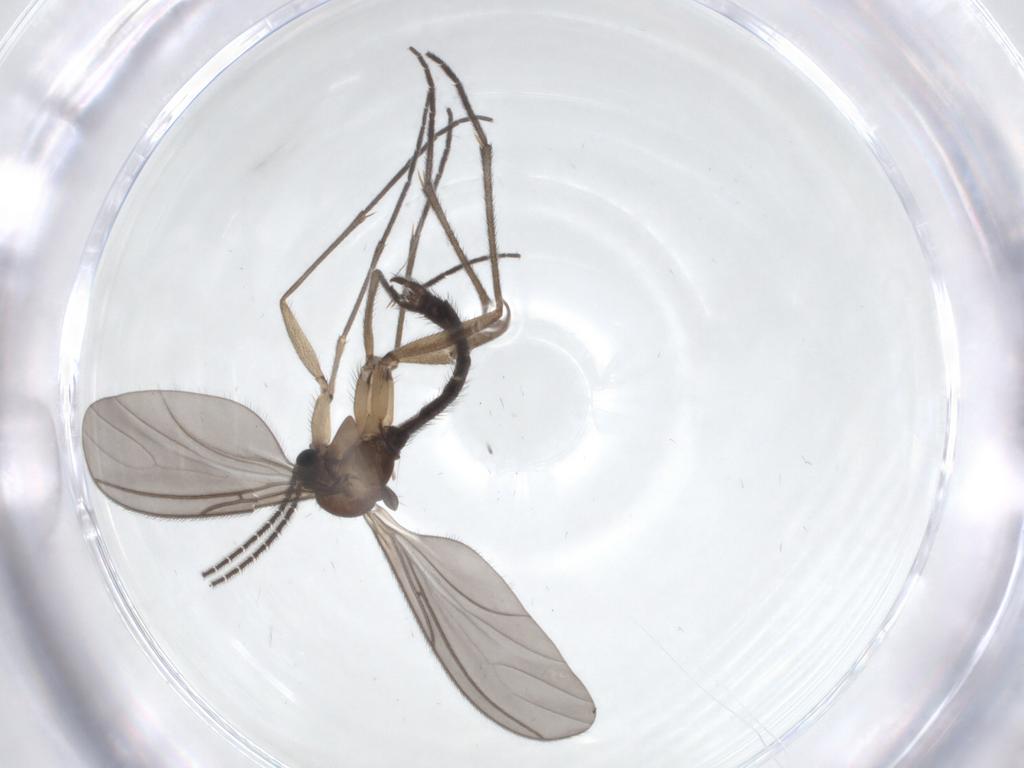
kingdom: Animalia
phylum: Arthropoda
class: Insecta
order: Diptera
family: Sciaridae
